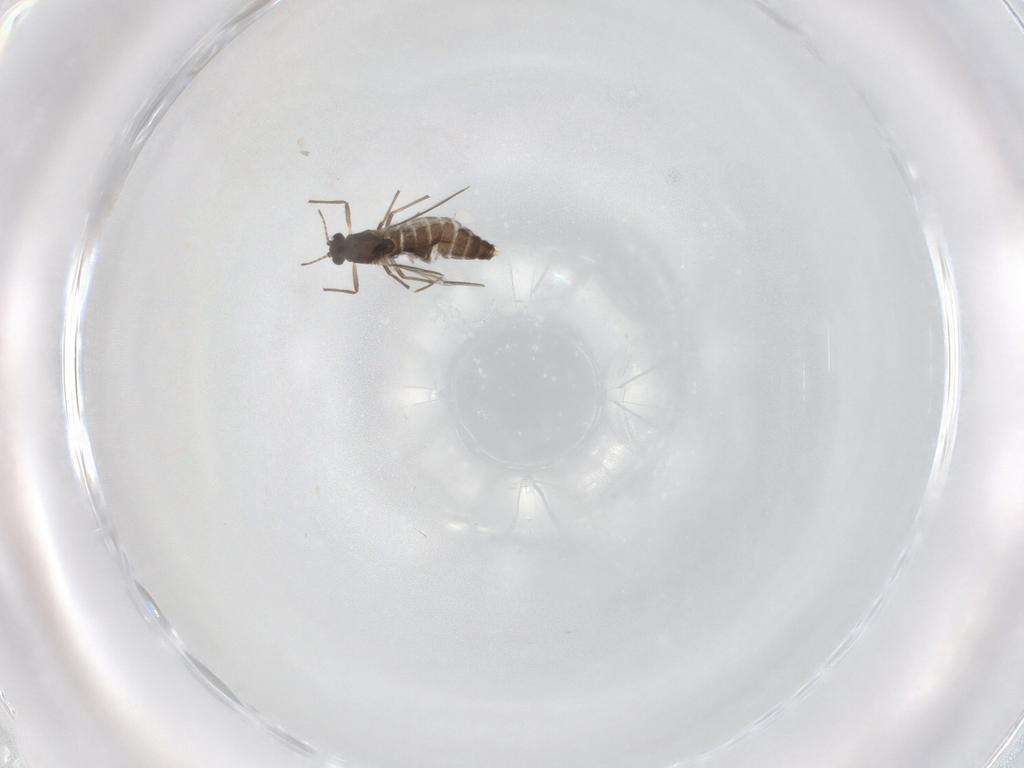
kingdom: Animalia
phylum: Arthropoda
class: Insecta
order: Diptera
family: Chironomidae
